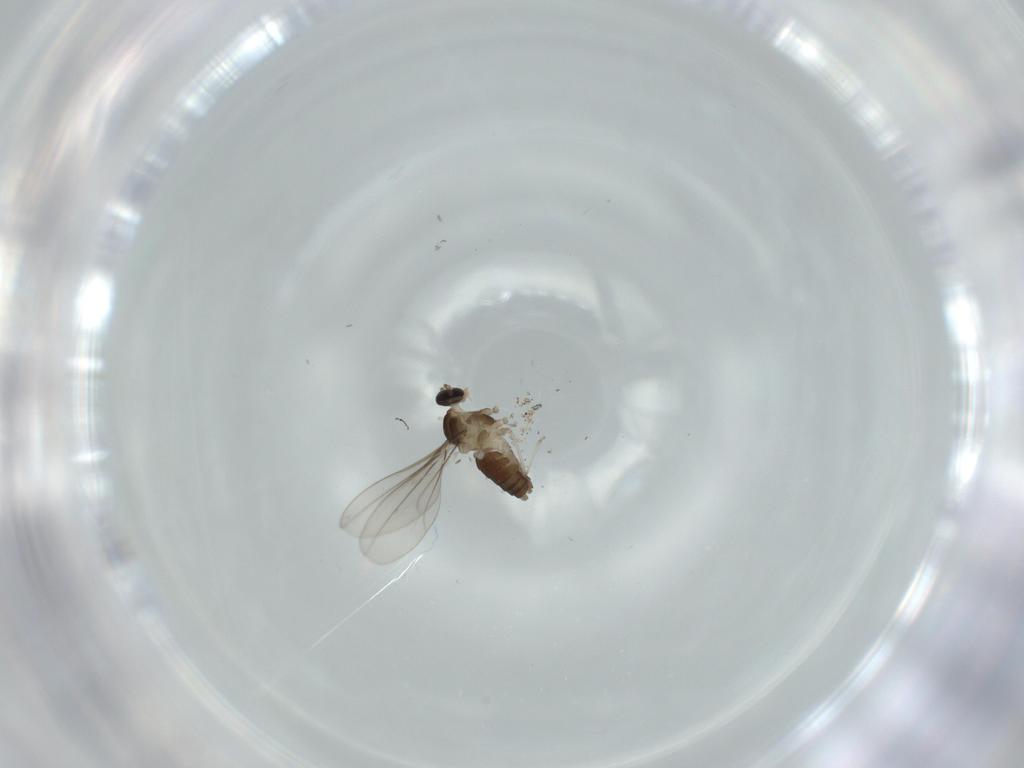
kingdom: Animalia
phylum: Arthropoda
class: Insecta
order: Diptera
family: Cecidomyiidae
